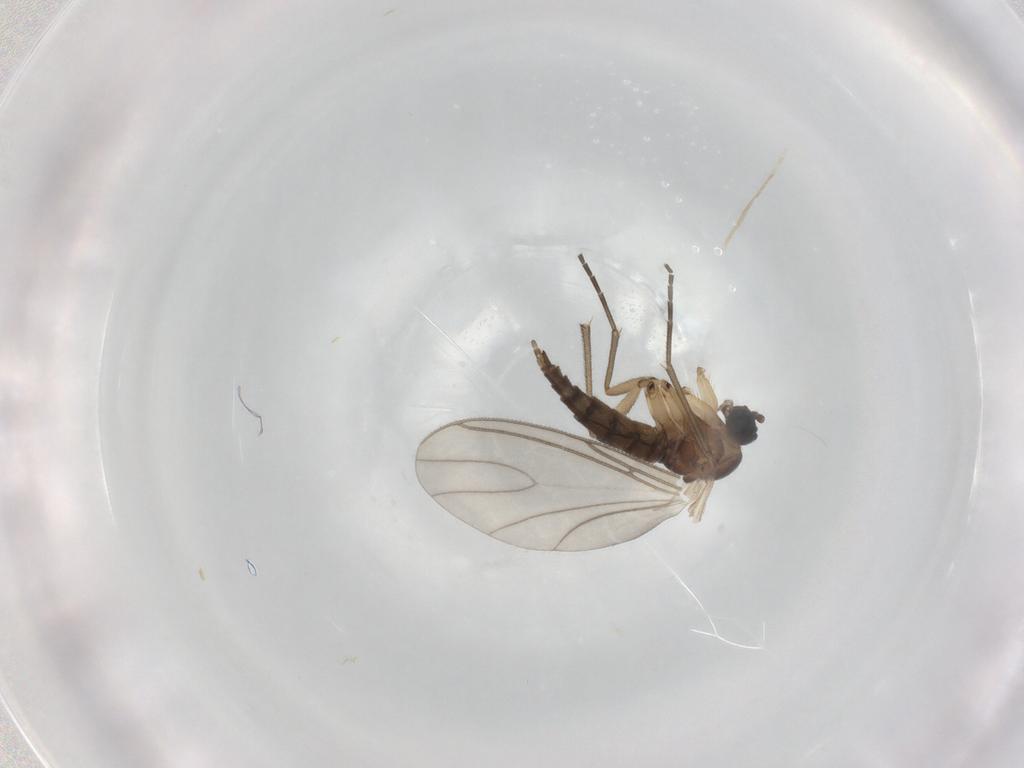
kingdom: Animalia
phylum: Arthropoda
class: Insecta
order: Diptera
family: Sciaridae
